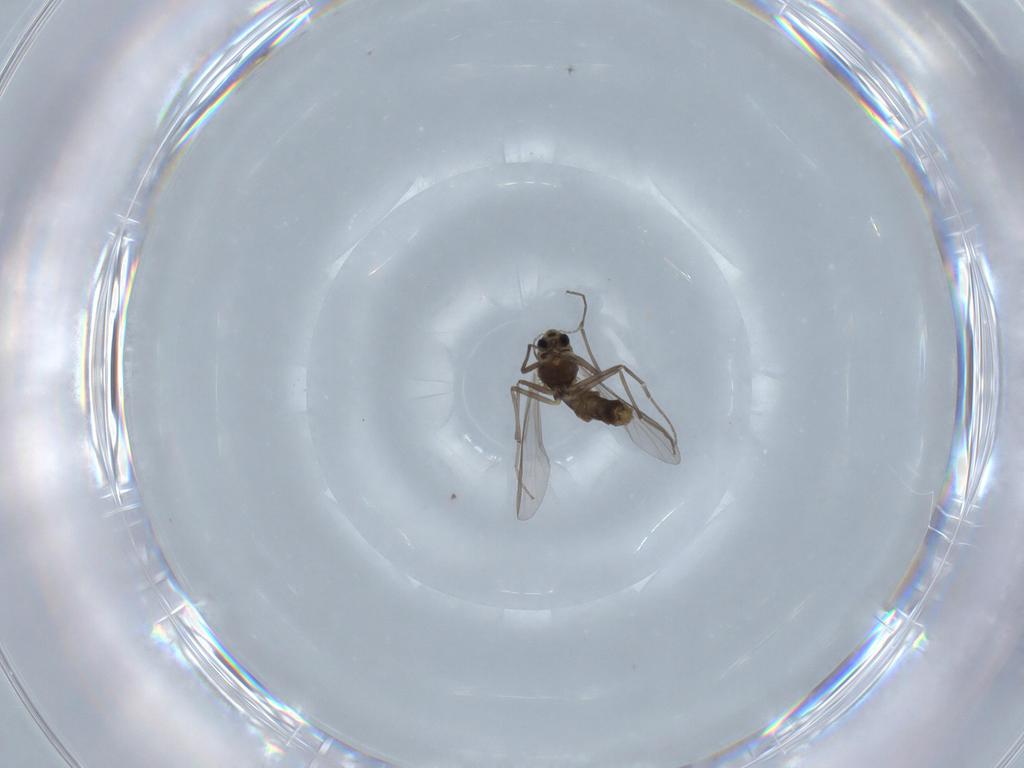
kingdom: Animalia
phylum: Arthropoda
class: Insecta
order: Diptera
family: Chironomidae
